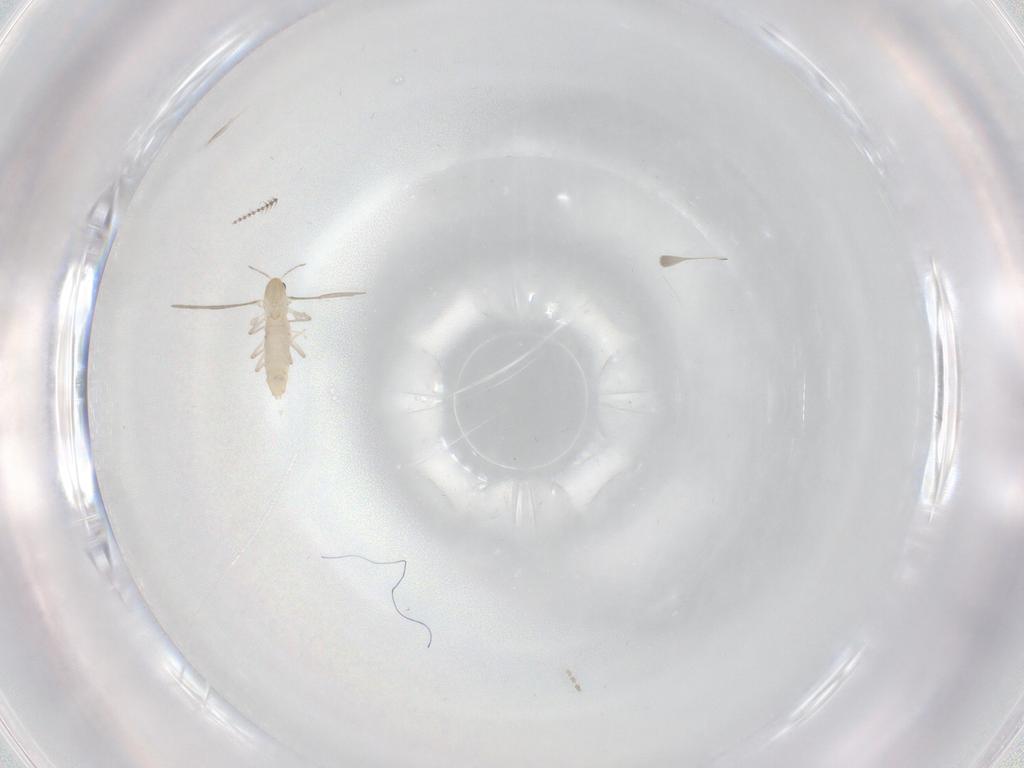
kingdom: Animalia
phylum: Arthropoda
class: Insecta
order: Diptera
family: Chironomidae
